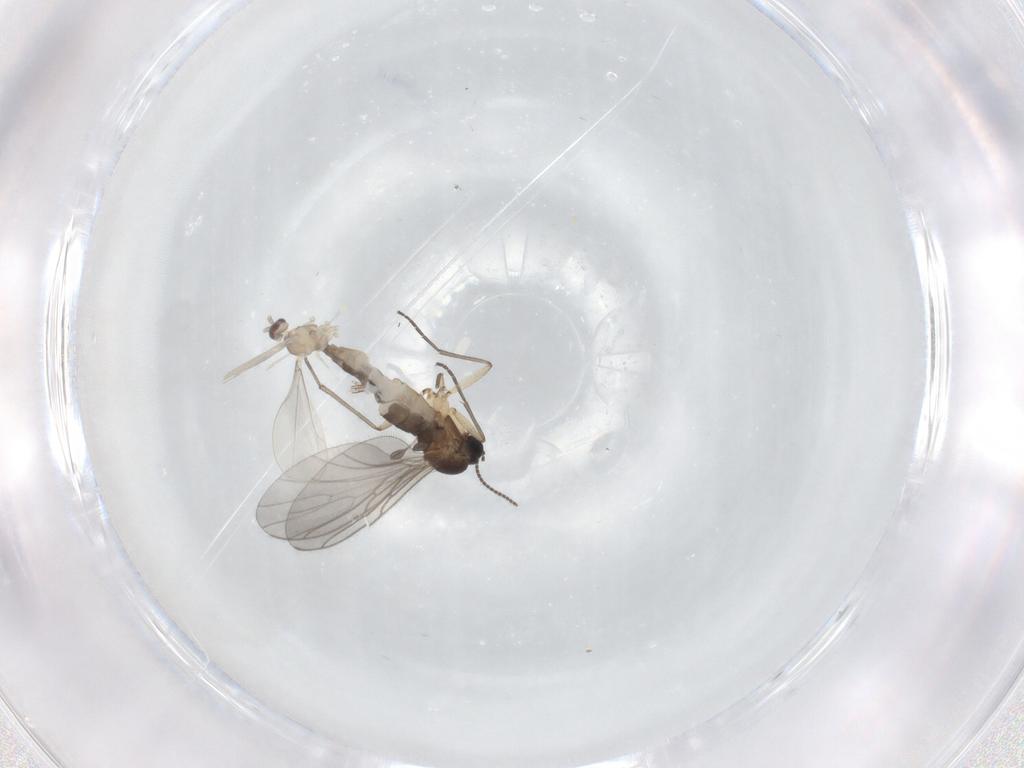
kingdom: Animalia
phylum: Arthropoda
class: Insecta
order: Diptera
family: Sciaridae
